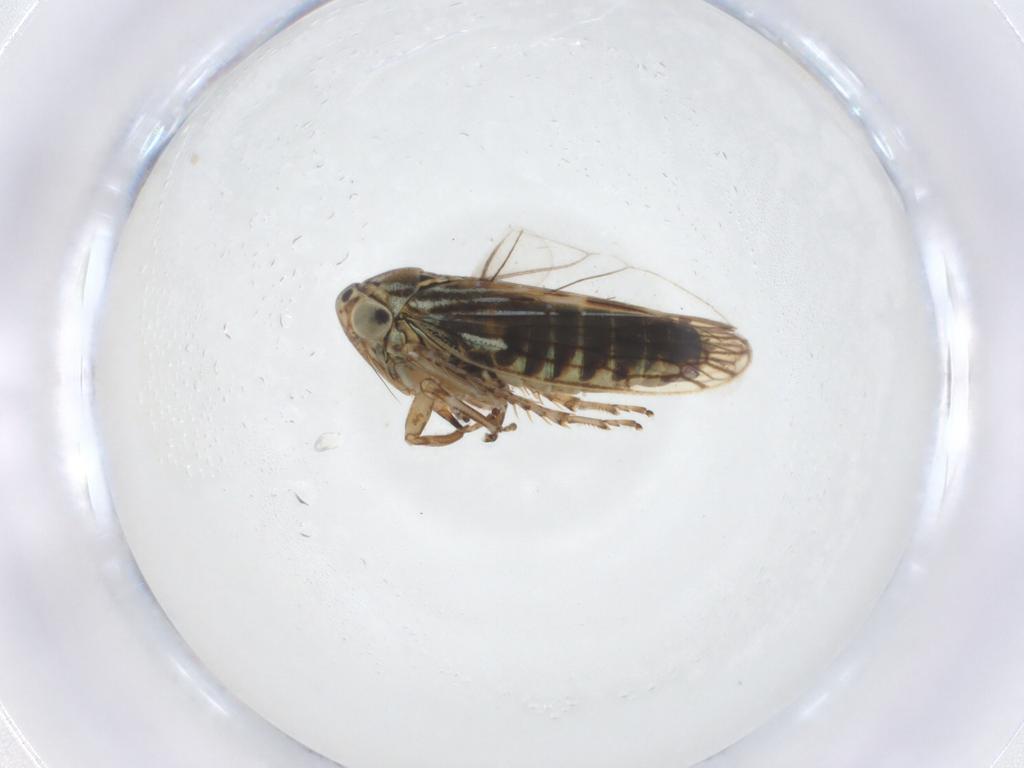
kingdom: Animalia
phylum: Arthropoda
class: Insecta
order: Hemiptera
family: Cicadellidae
